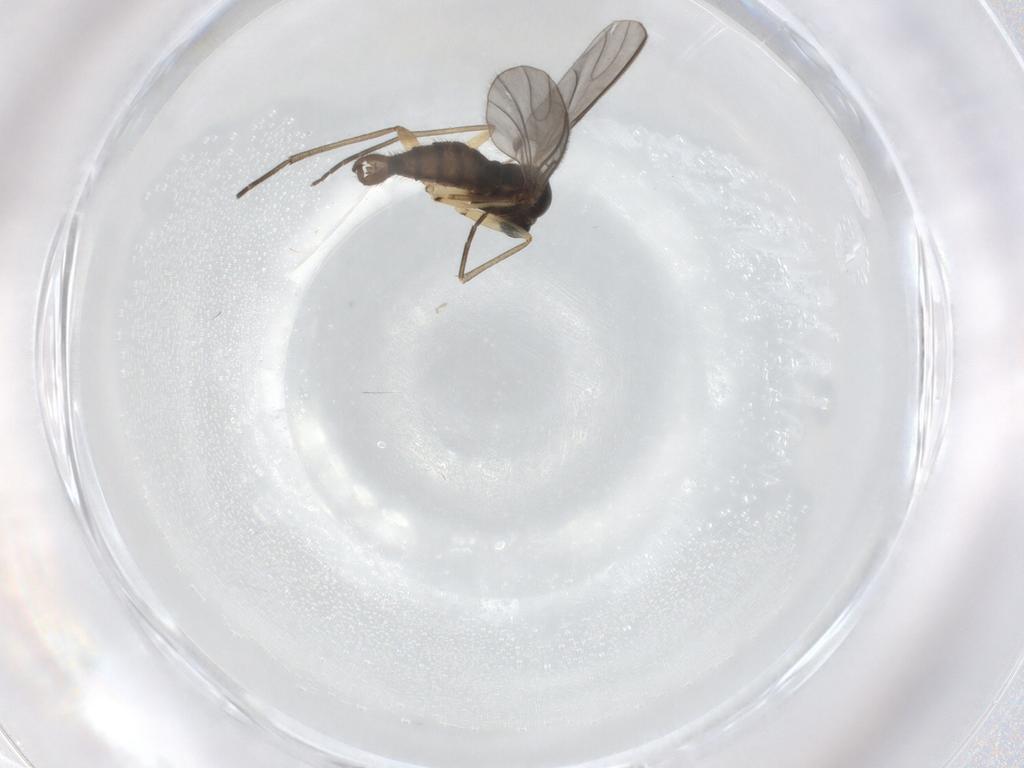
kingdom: Animalia
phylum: Arthropoda
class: Insecta
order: Diptera
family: Sciaridae
